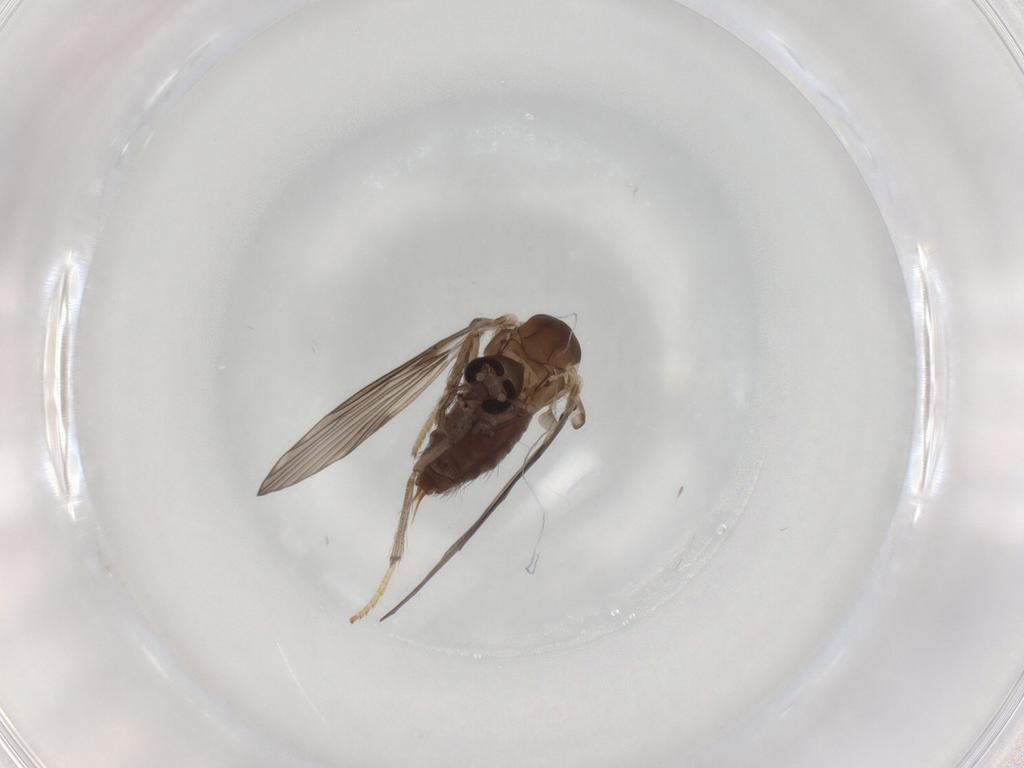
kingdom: Animalia
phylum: Arthropoda
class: Insecta
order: Diptera
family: Psychodidae
